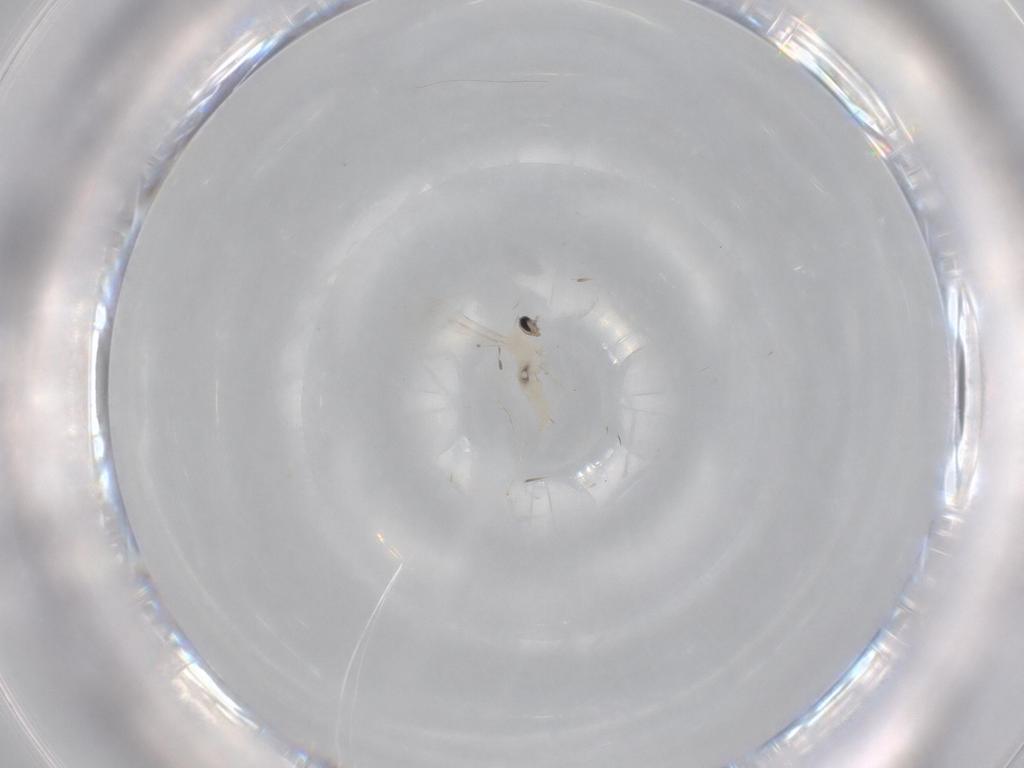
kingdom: Animalia
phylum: Arthropoda
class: Insecta
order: Diptera
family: Cecidomyiidae
